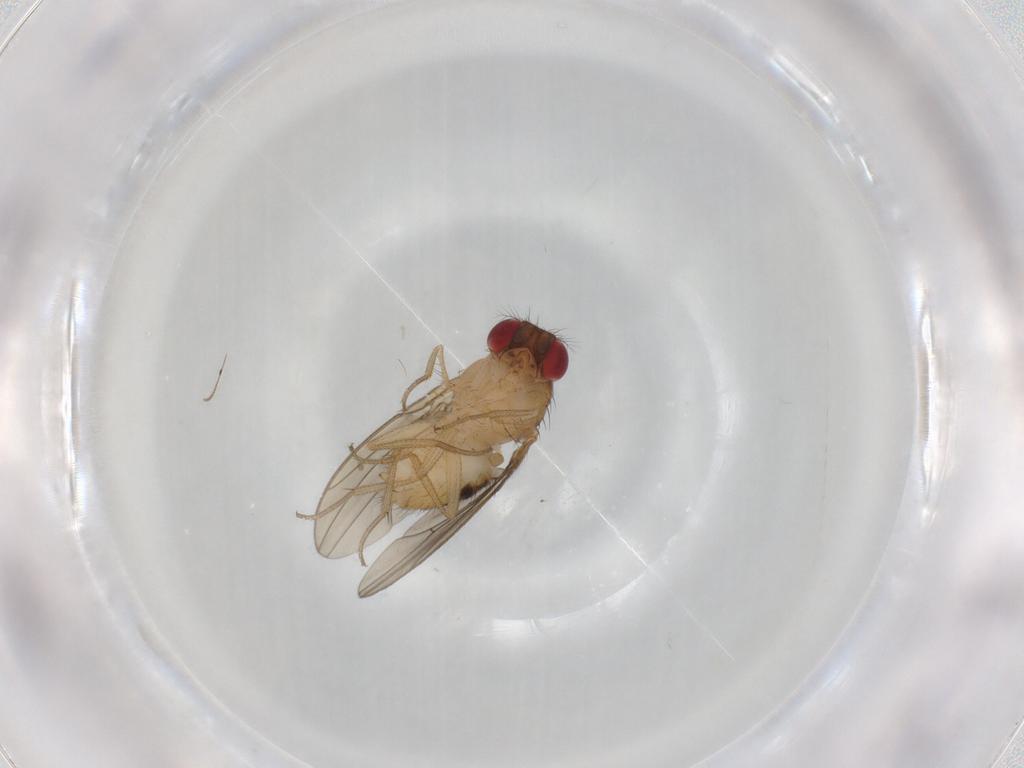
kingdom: Animalia
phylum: Arthropoda
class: Insecta
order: Diptera
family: Drosophilidae
